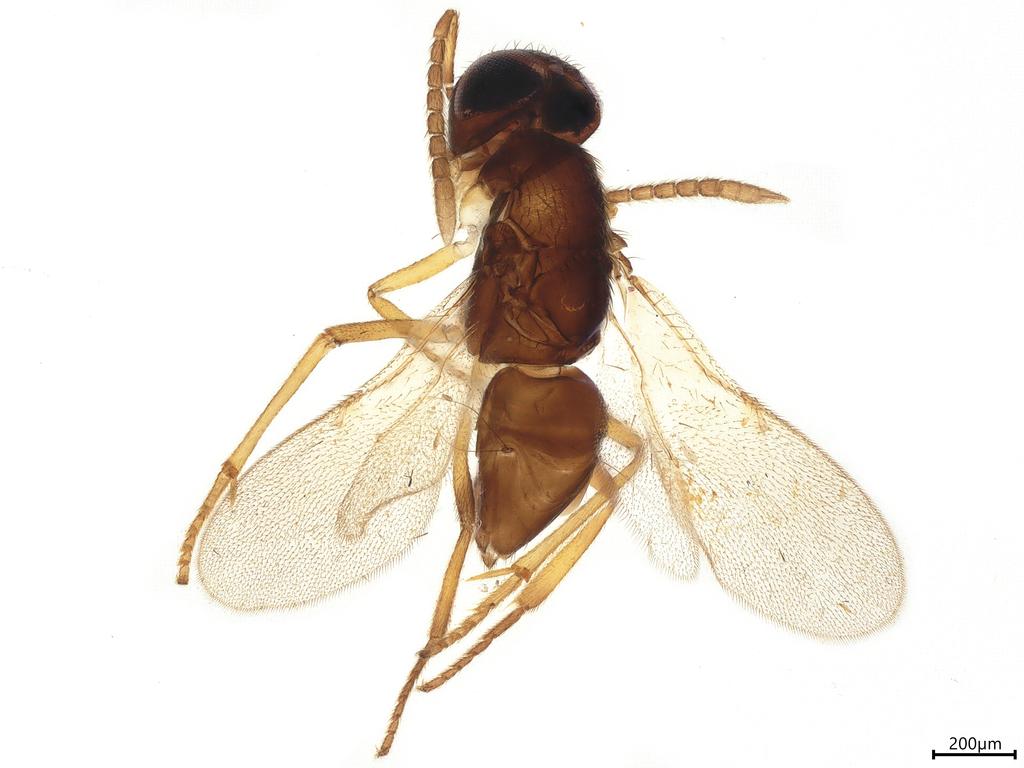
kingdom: Animalia
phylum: Arthropoda
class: Insecta
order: Hymenoptera
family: Encyrtidae
